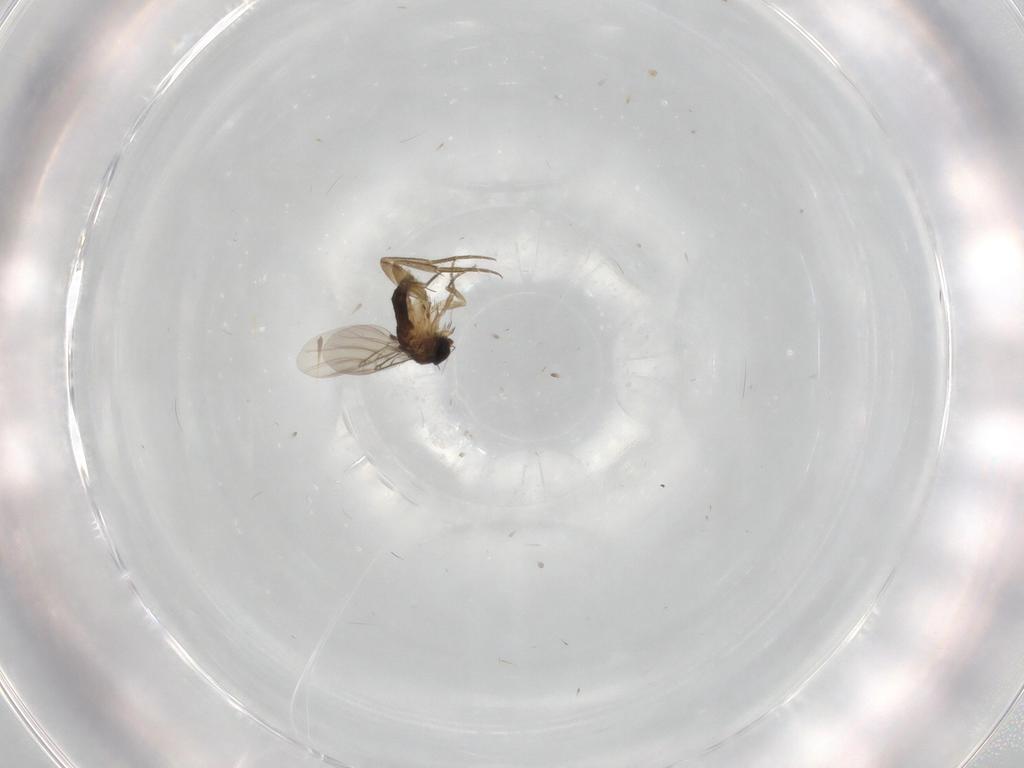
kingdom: Animalia
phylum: Arthropoda
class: Insecta
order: Diptera
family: Phoridae
